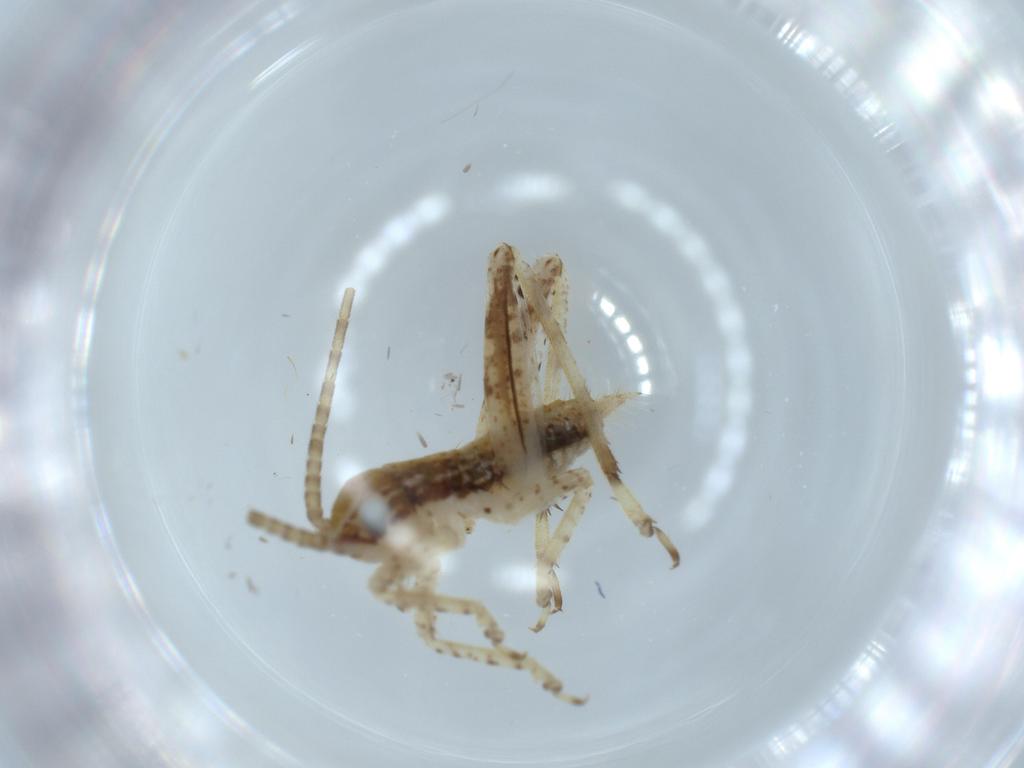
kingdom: Animalia
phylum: Arthropoda
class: Insecta
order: Orthoptera
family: Gryllidae
